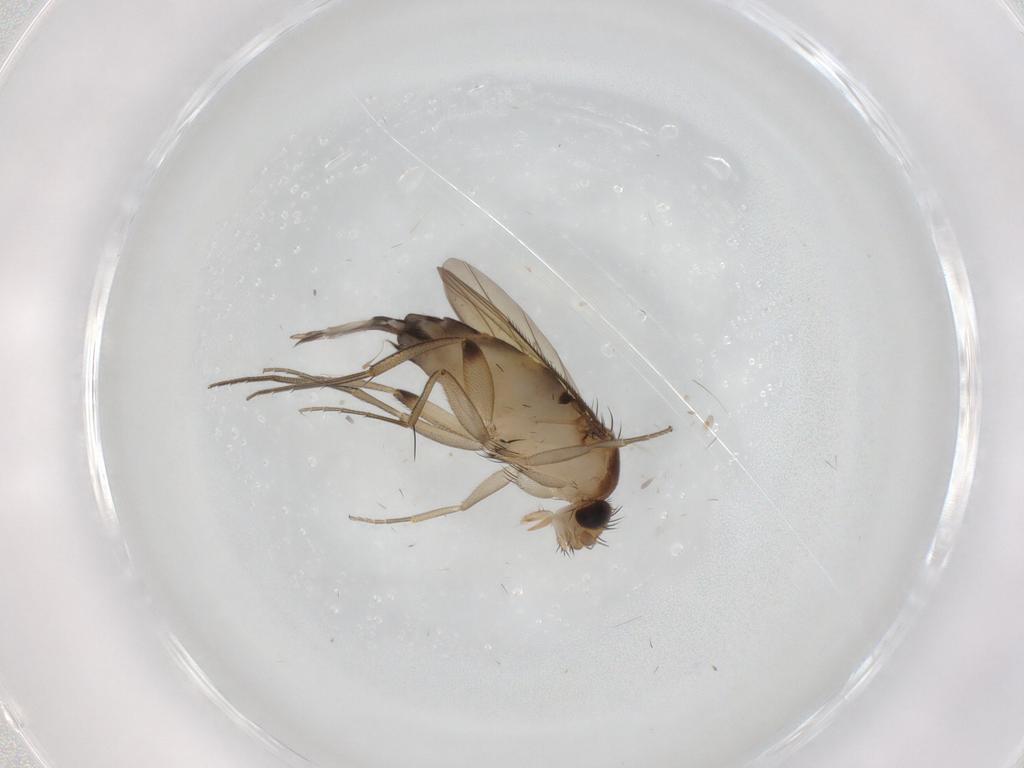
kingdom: Animalia
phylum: Arthropoda
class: Insecta
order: Diptera
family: Phoridae
